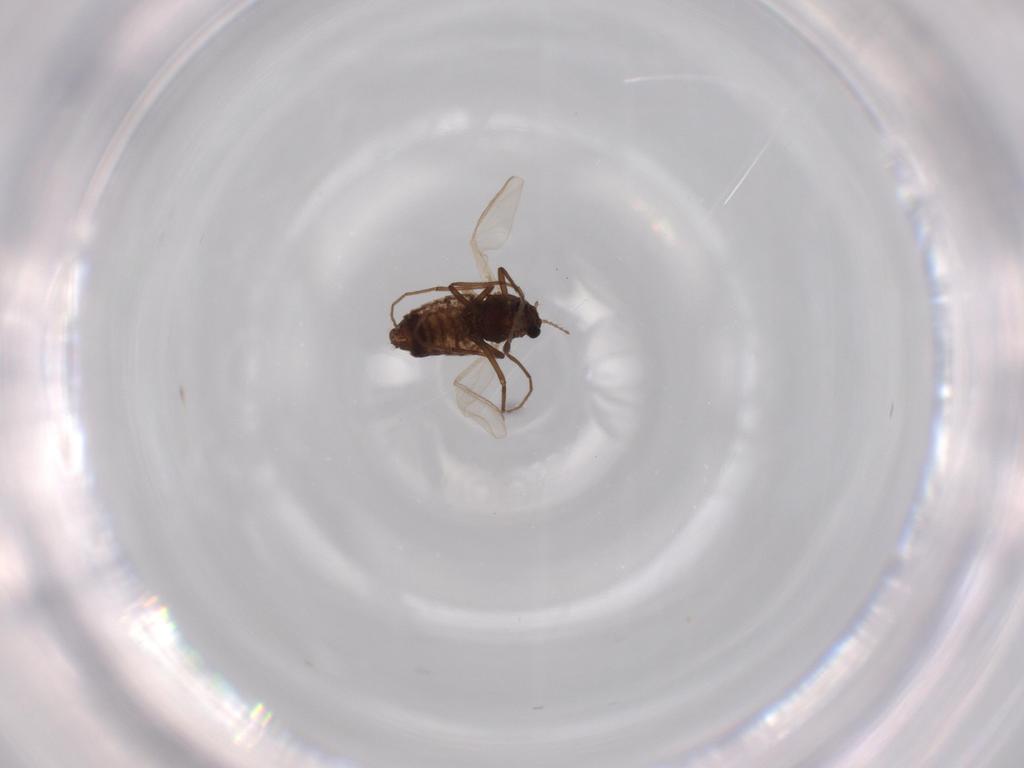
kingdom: Animalia
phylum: Arthropoda
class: Insecta
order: Diptera
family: Chironomidae
